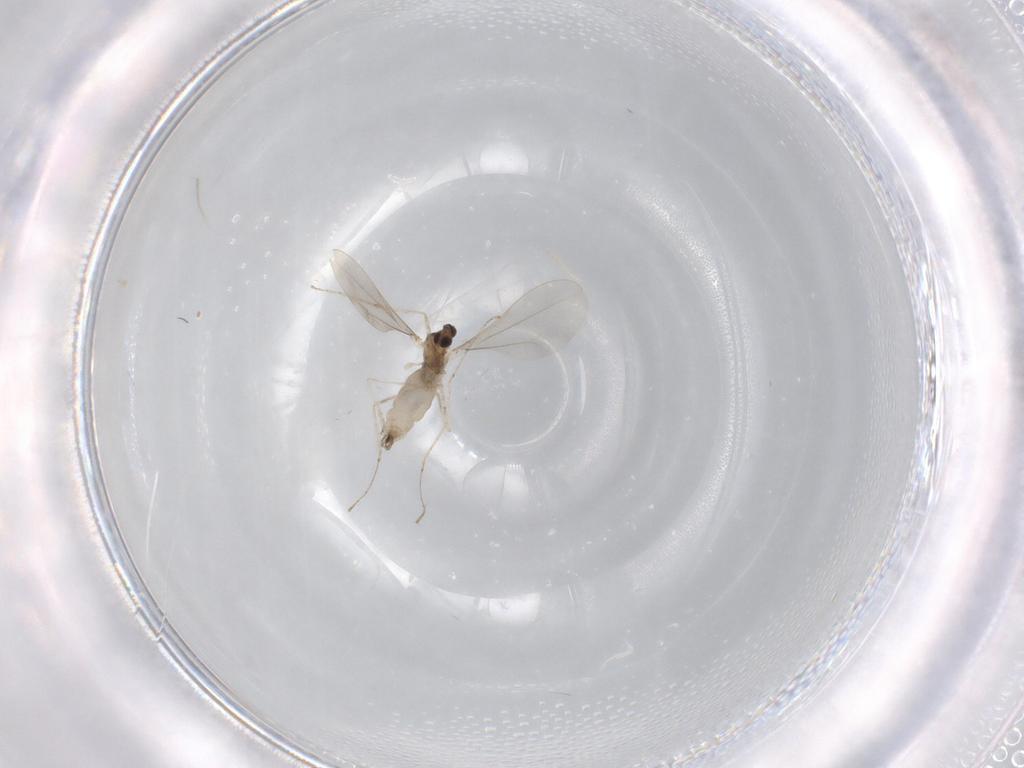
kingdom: Animalia
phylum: Arthropoda
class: Insecta
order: Diptera
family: Cecidomyiidae
